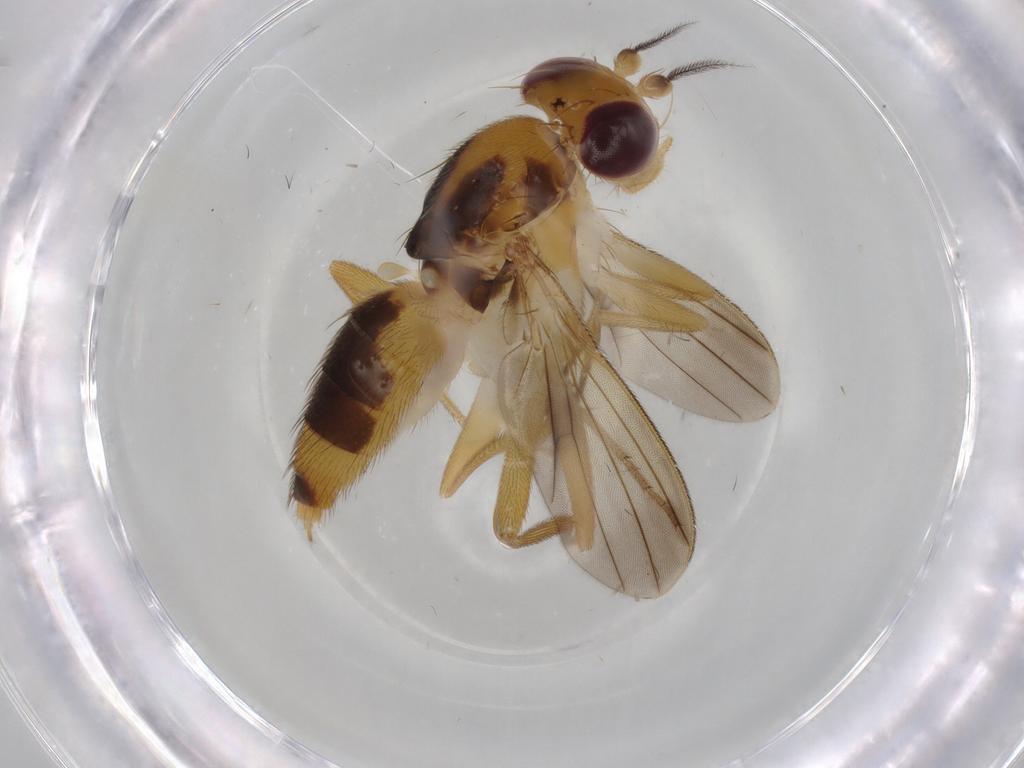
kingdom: Animalia
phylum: Arthropoda
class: Insecta
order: Diptera
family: Clusiidae
